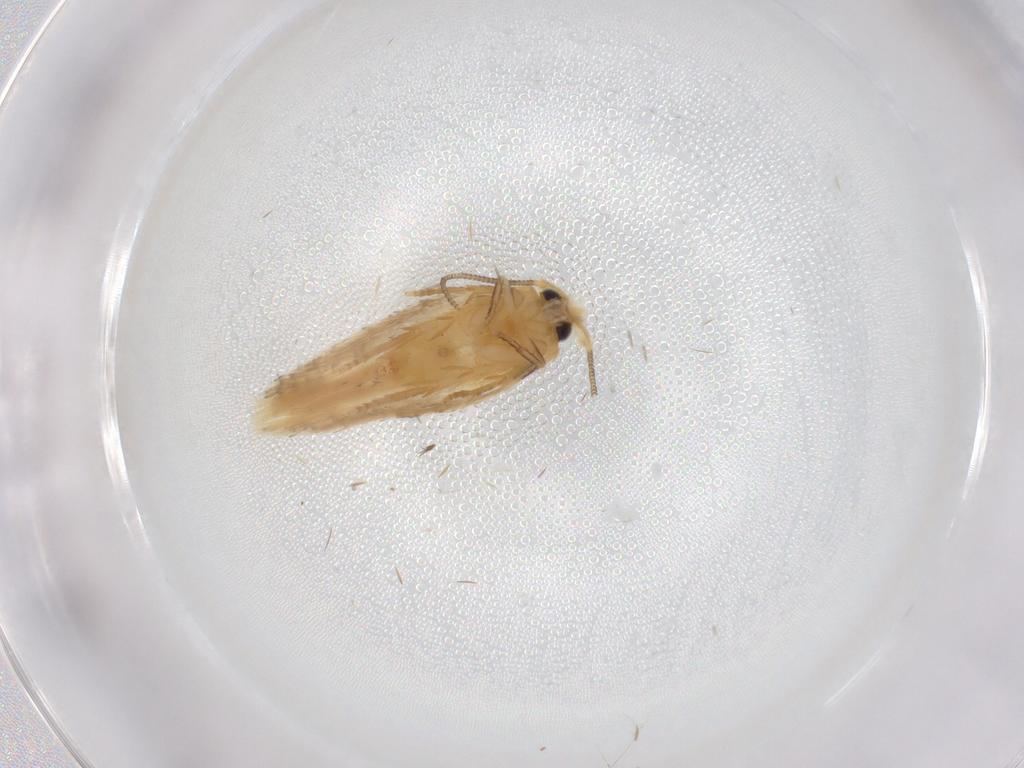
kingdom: Animalia
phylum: Arthropoda
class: Insecta
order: Lepidoptera
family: Nepticulidae
